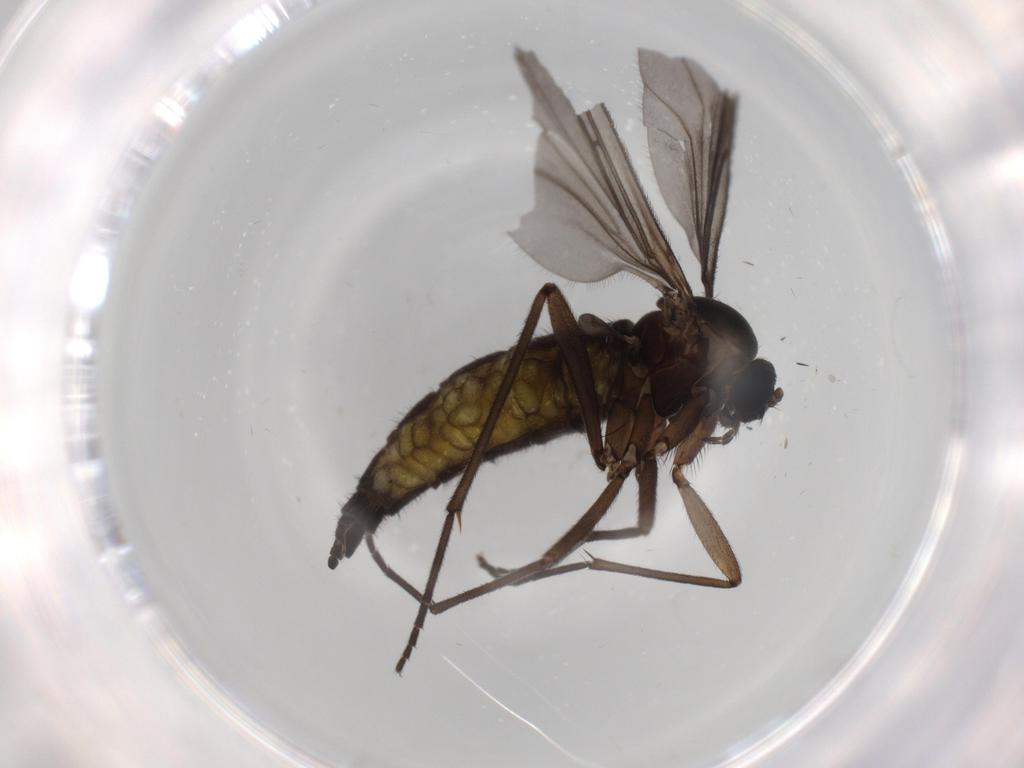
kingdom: Animalia
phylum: Arthropoda
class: Insecta
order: Diptera
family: Sciaridae
